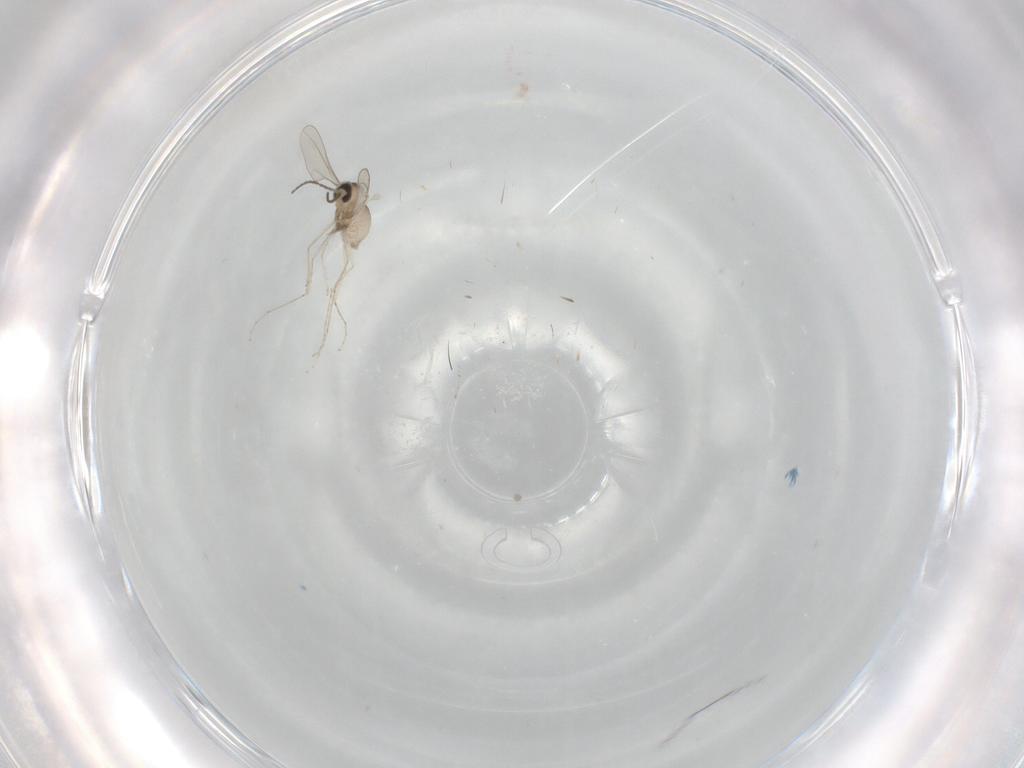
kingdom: Animalia
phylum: Arthropoda
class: Insecta
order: Diptera
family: Cecidomyiidae
